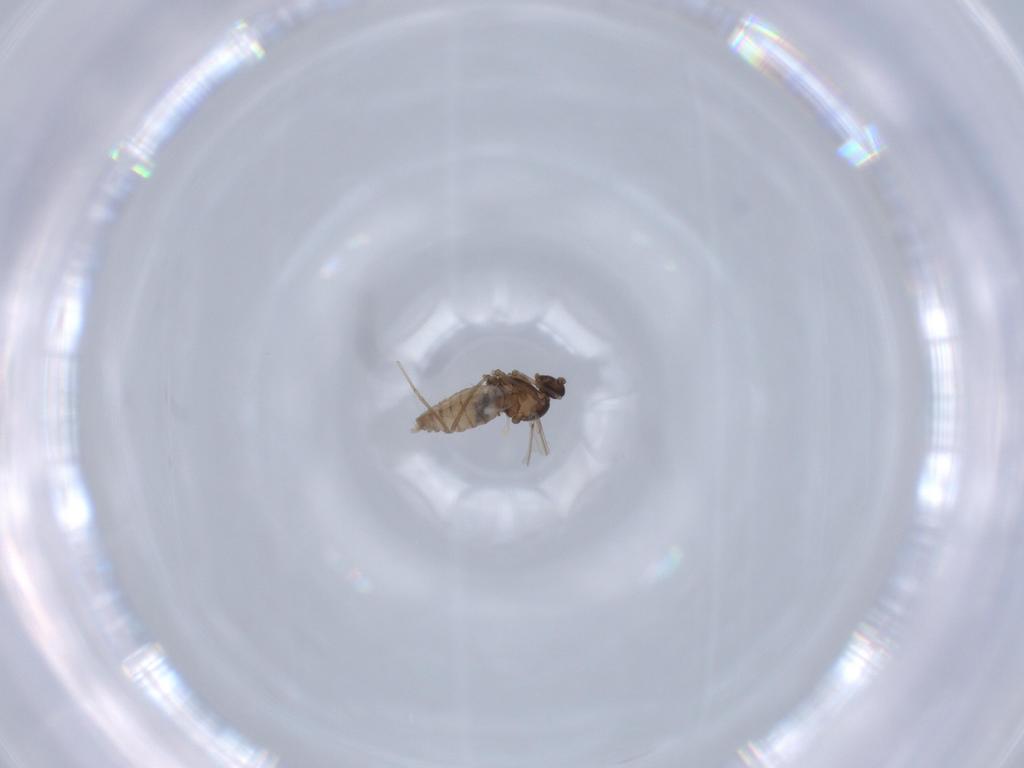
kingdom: Animalia
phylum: Arthropoda
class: Insecta
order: Diptera
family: Cecidomyiidae
